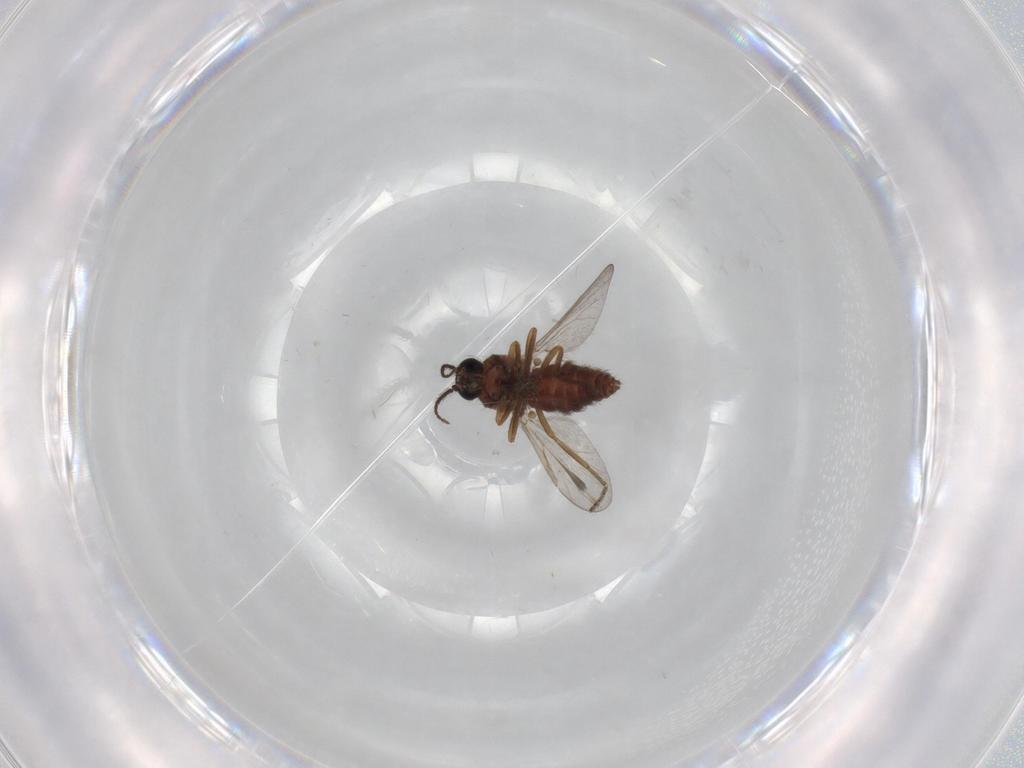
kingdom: Animalia
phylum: Arthropoda
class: Insecta
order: Diptera
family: Ceratopogonidae
